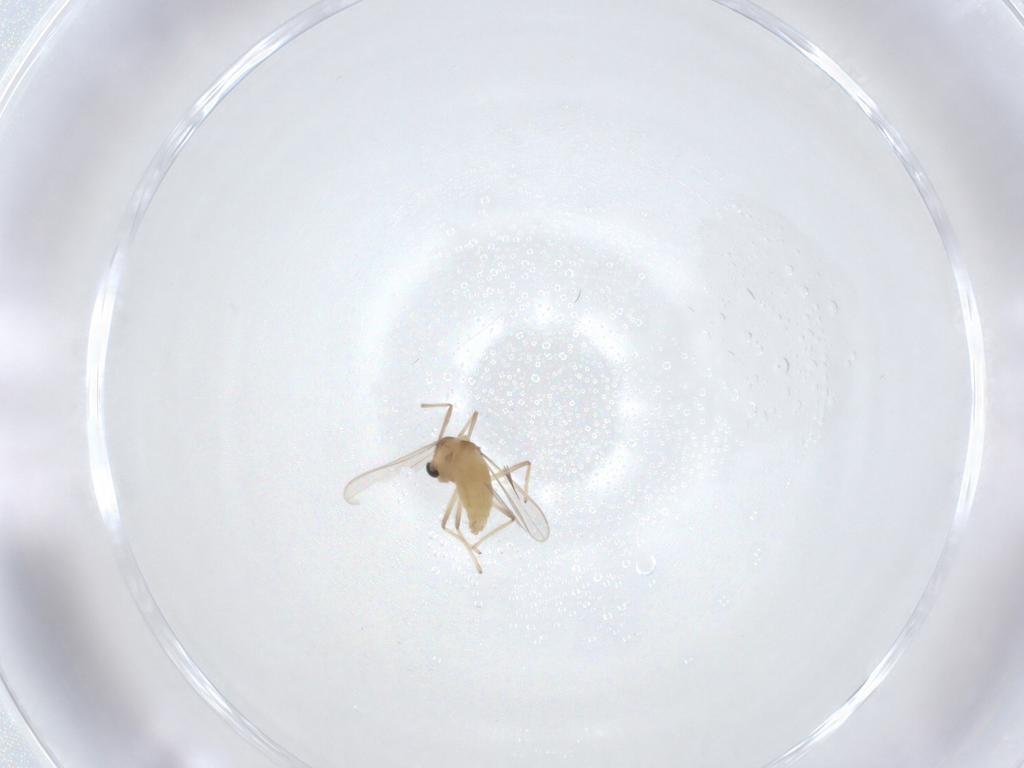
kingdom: Animalia
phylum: Arthropoda
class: Insecta
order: Diptera
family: Chironomidae
